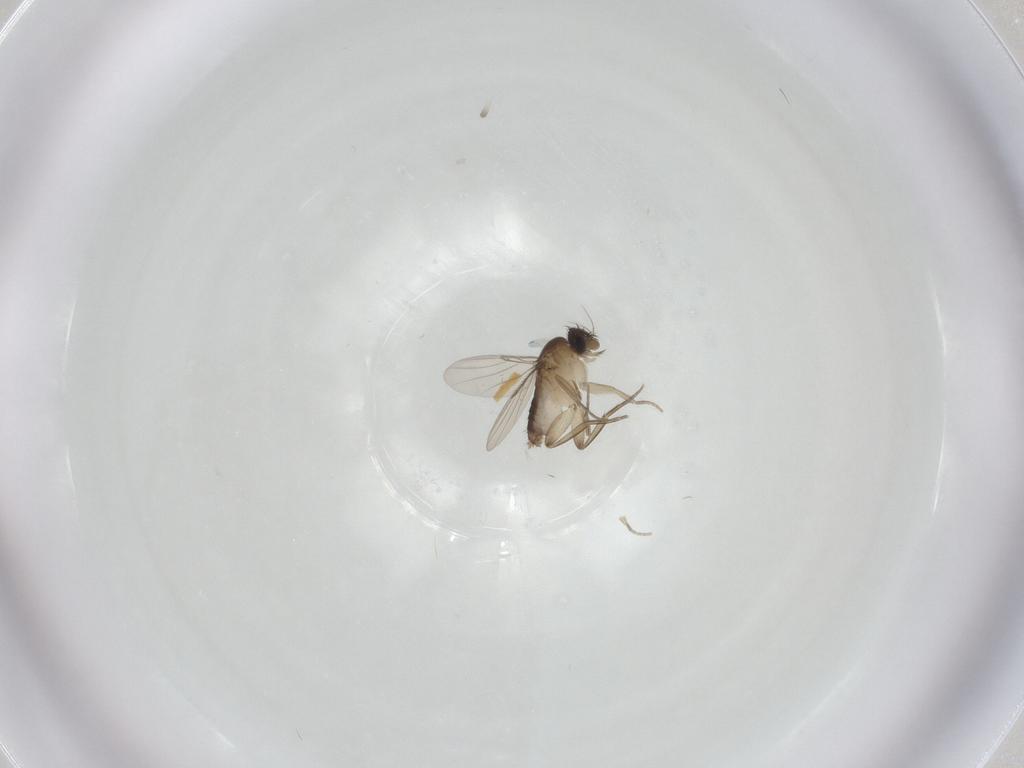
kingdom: Animalia
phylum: Arthropoda
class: Insecta
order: Diptera
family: Phoridae
